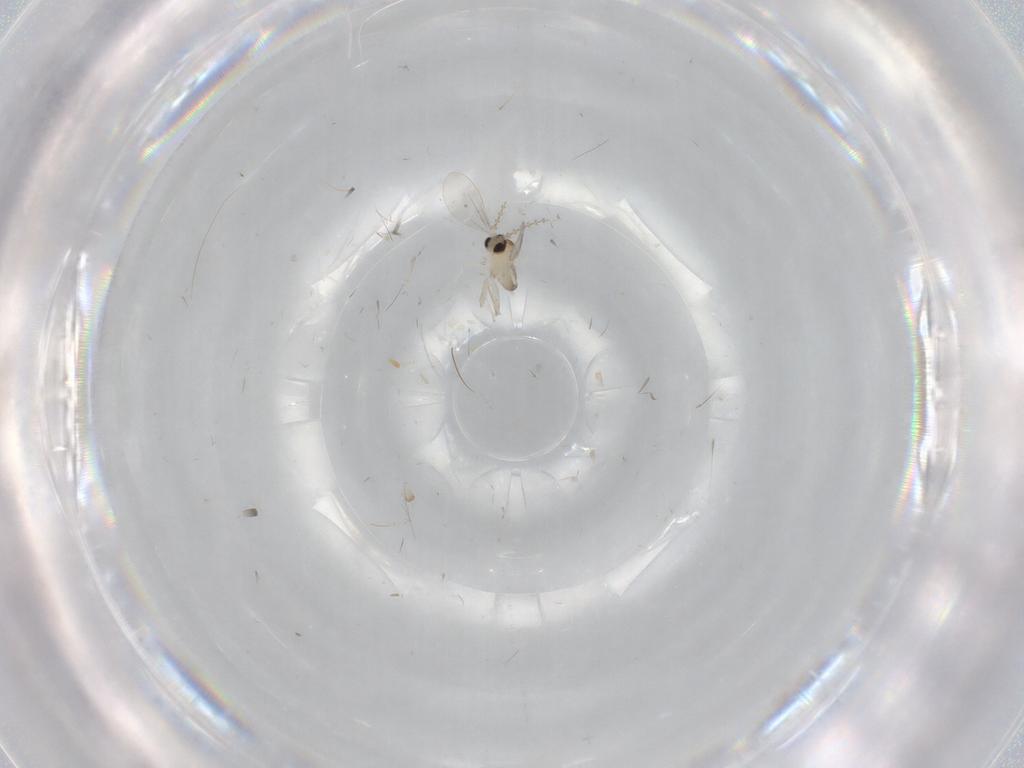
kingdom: Animalia
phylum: Arthropoda
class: Insecta
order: Diptera
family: Cecidomyiidae
